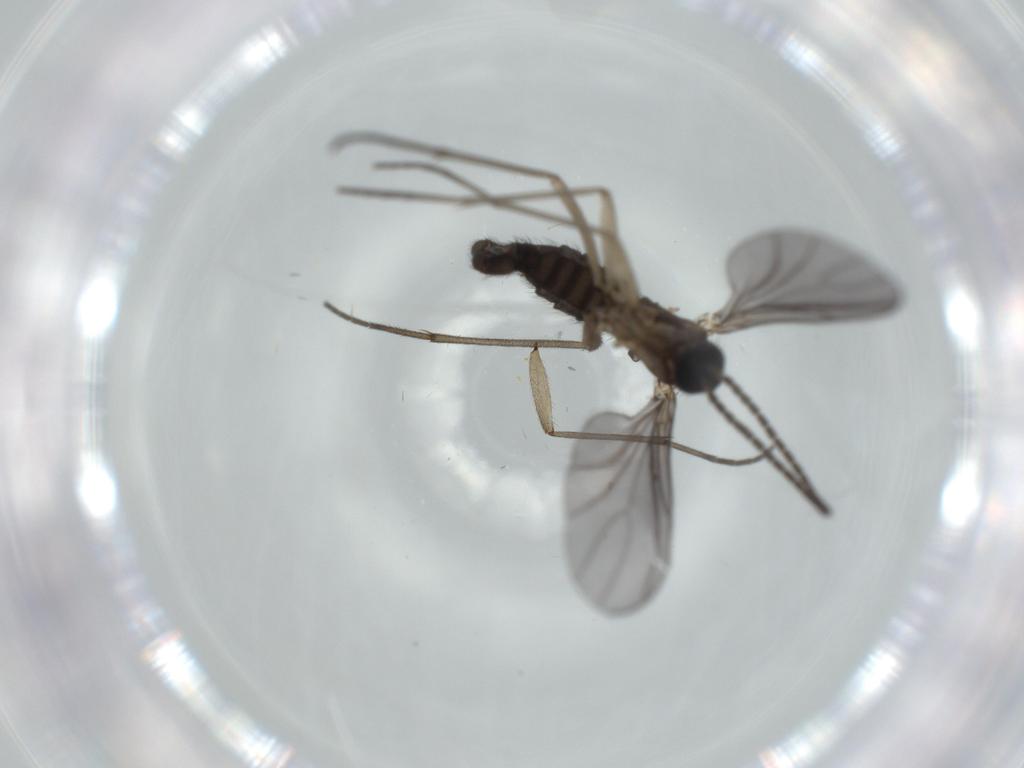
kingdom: Animalia
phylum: Arthropoda
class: Insecta
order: Diptera
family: Sciaridae
